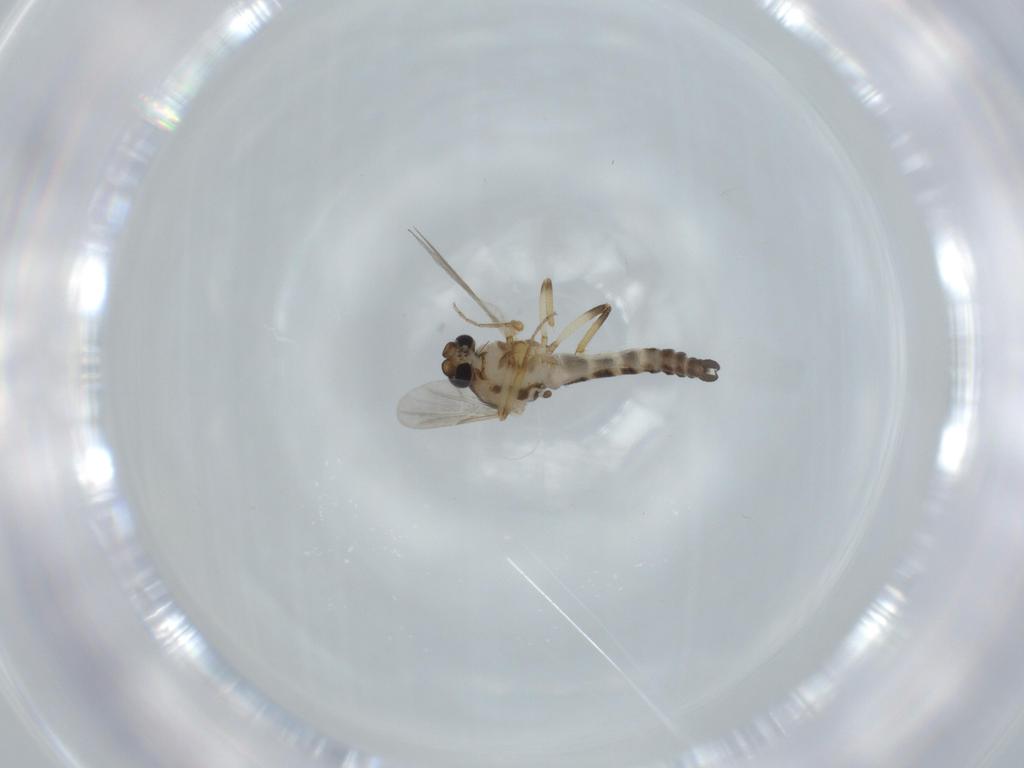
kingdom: Animalia
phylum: Arthropoda
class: Insecta
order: Diptera
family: Ceratopogonidae
